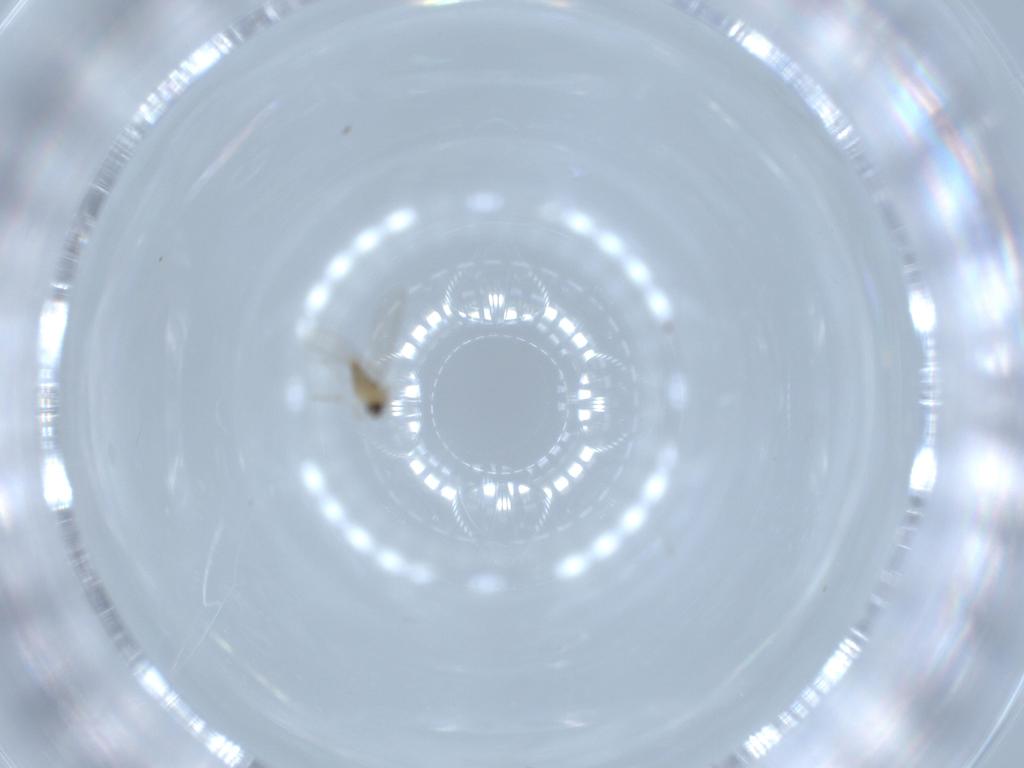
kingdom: Animalia
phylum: Arthropoda
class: Insecta
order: Diptera
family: Cecidomyiidae
